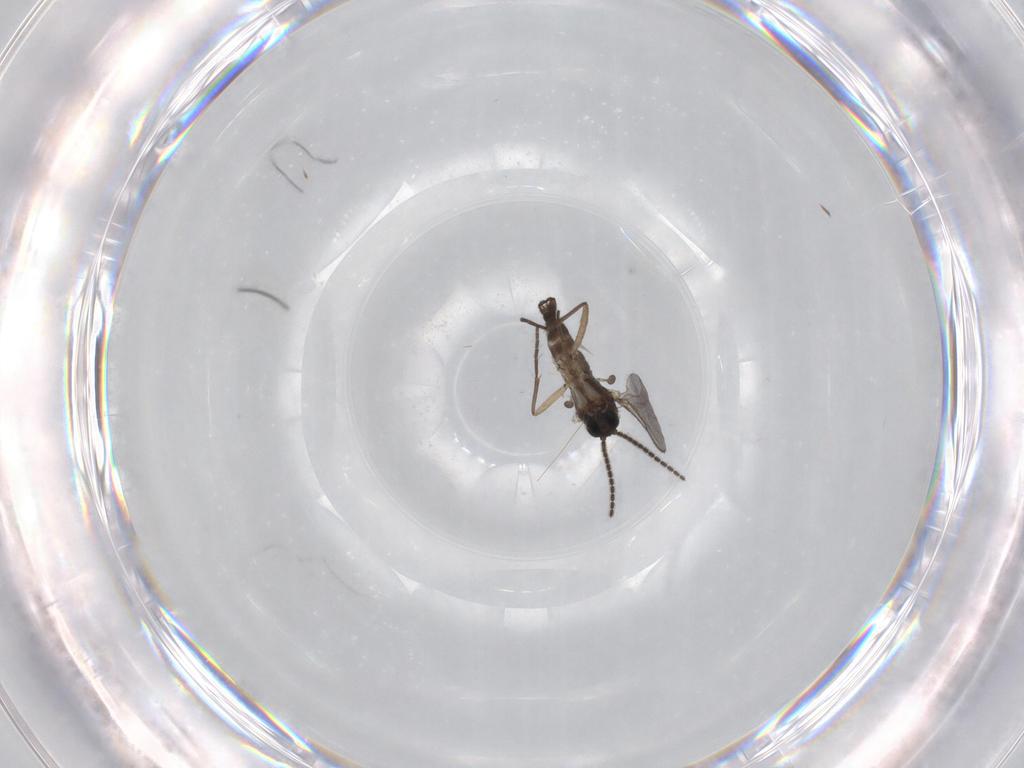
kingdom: Animalia
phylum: Arthropoda
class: Insecta
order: Diptera
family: Sciaridae
